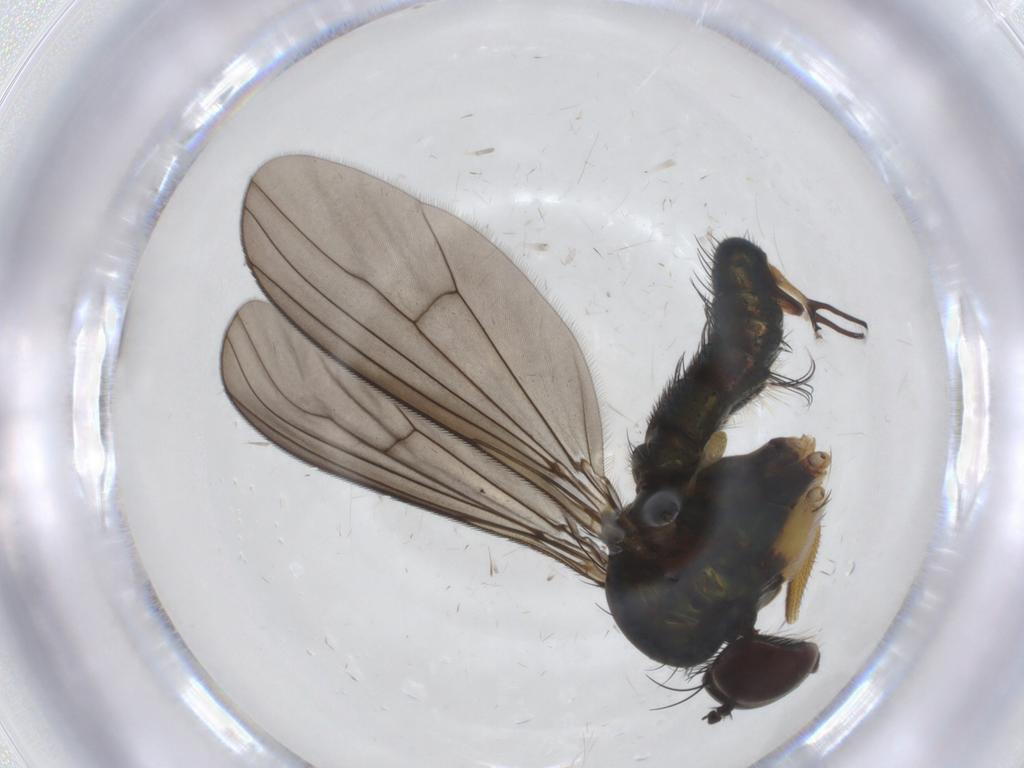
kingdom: Animalia
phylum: Arthropoda
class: Insecta
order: Diptera
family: Dolichopodidae
